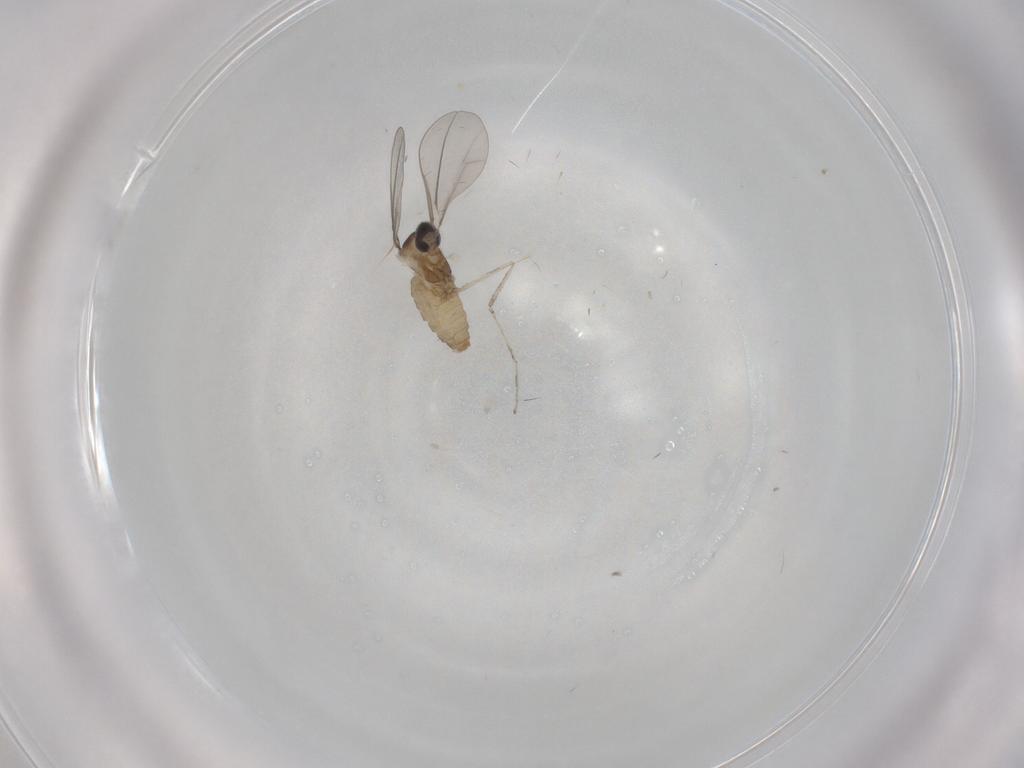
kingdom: Animalia
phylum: Arthropoda
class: Insecta
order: Diptera
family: Cecidomyiidae
